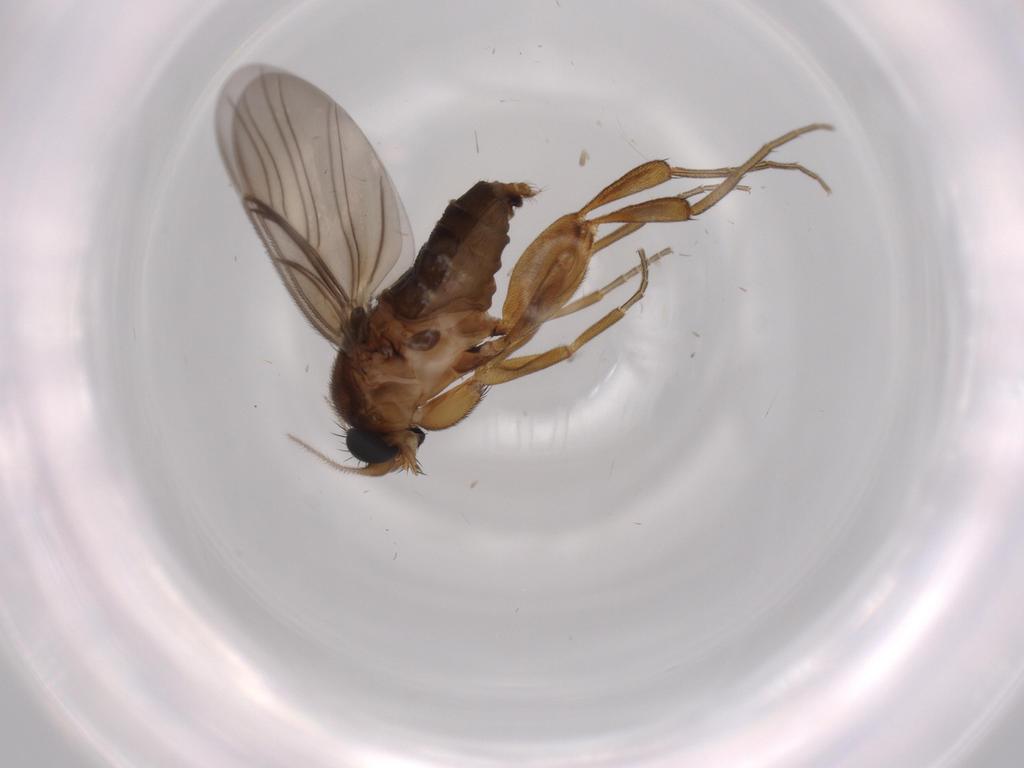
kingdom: Animalia
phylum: Arthropoda
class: Insecta
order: Diptera
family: Phoridae
